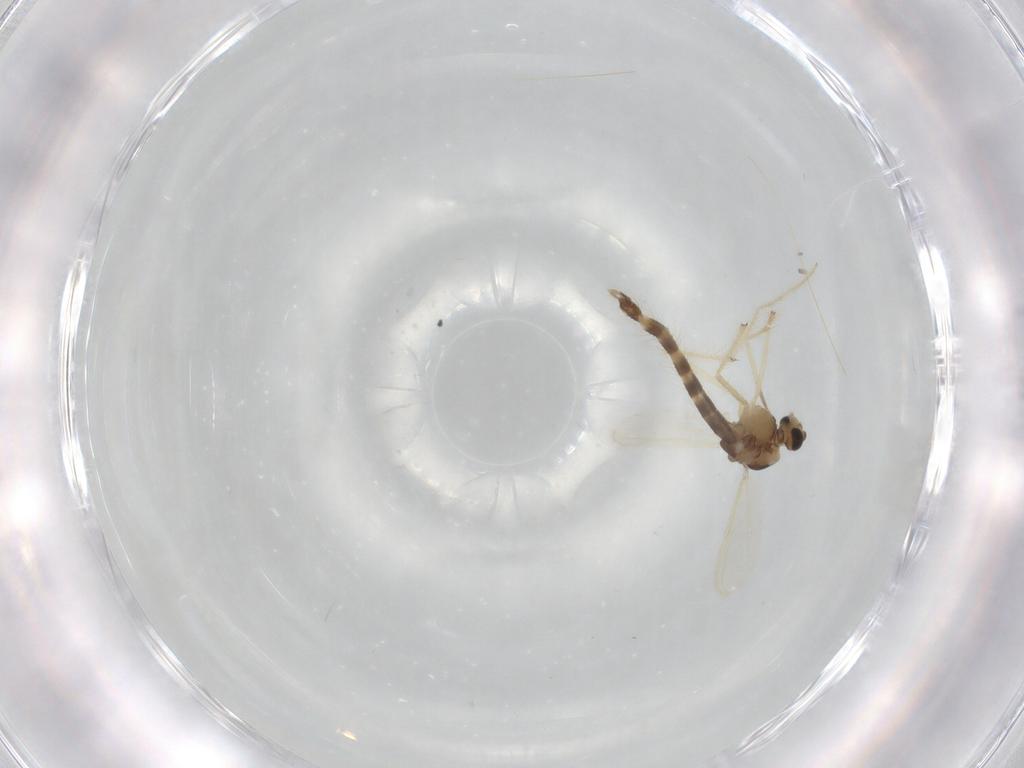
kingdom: Animalia
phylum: Arthropoda
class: Insecta
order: Diptera
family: Chironomidae
